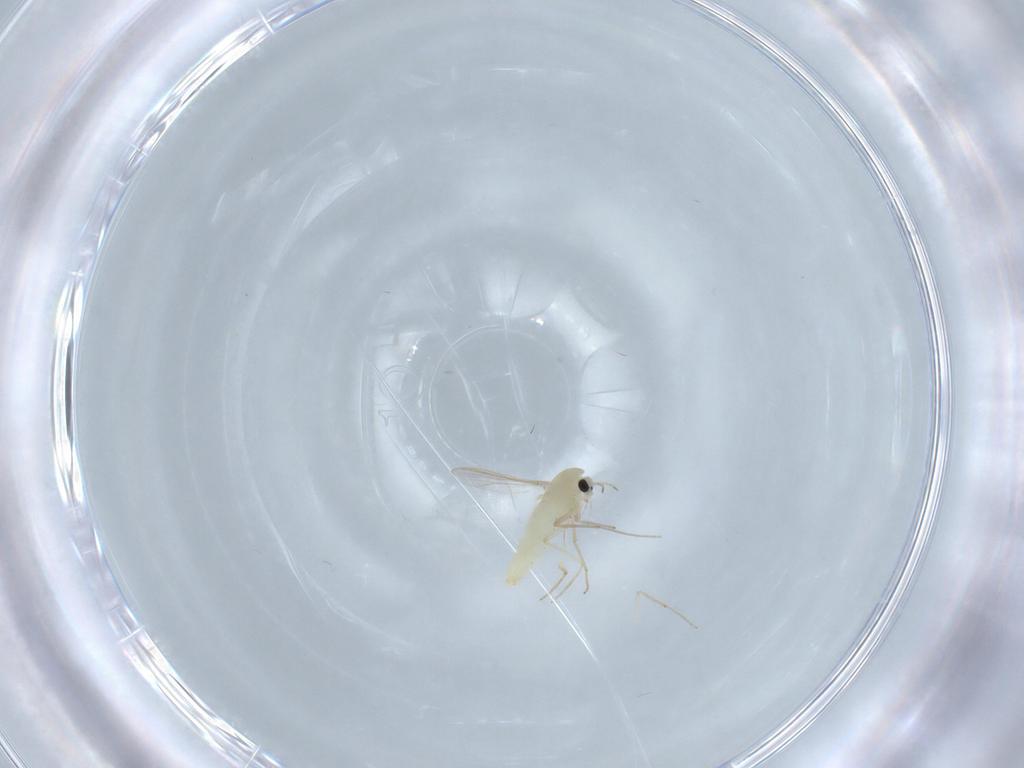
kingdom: Animalia
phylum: Arthropoda
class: Insecta
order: Diptera
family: Chironomidae
